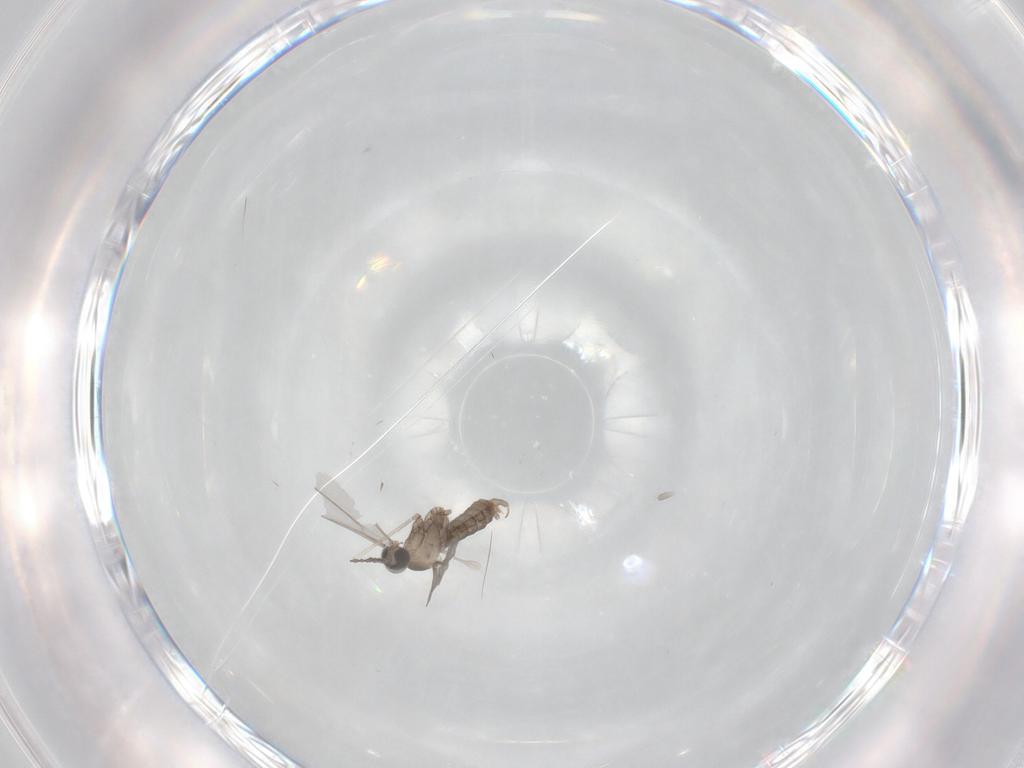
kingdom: Animalia
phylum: Arthropoda
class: Insecta
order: Diptera
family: Cecidomyiidae
